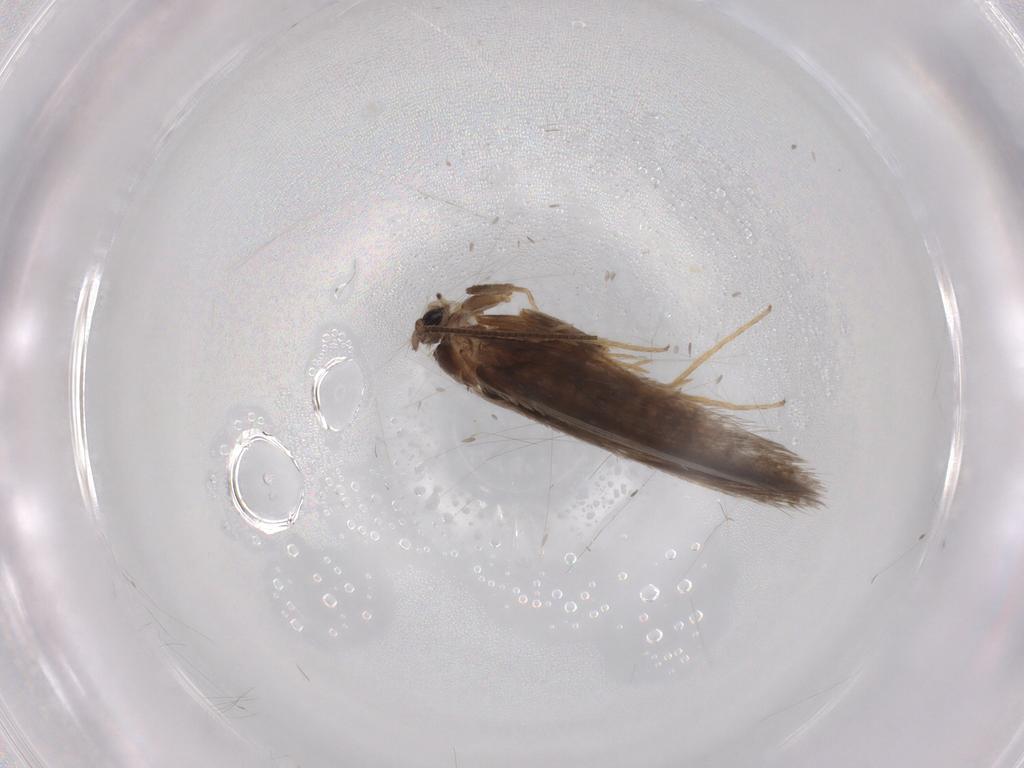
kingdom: Animalia
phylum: Arthropoda
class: Insecta
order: Lepidoptera
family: Nepticulidae
